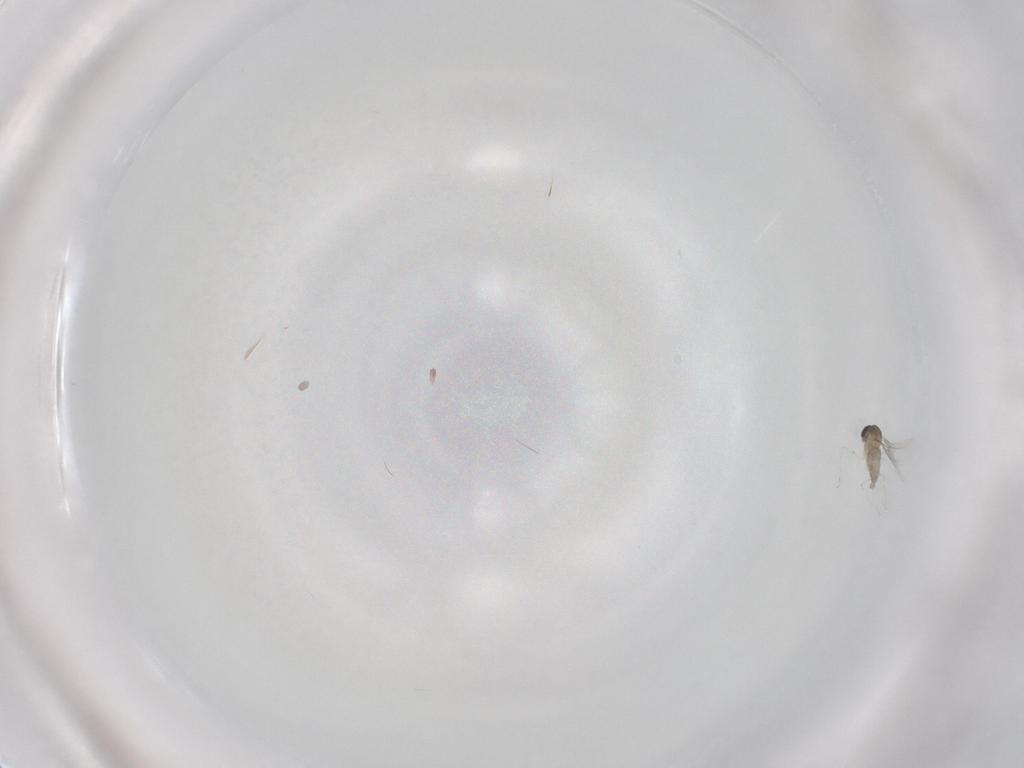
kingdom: Animalia
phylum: Arthropoda
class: Insecta
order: Diptera
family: Cecidomyiidae
